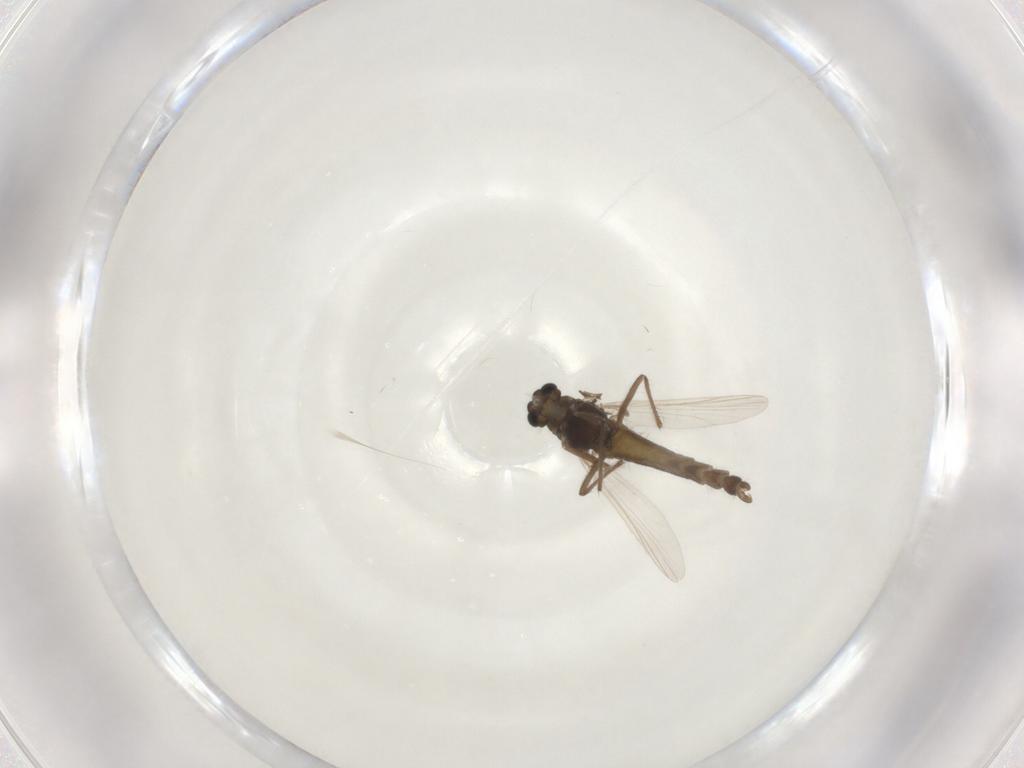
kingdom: Animalia
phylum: Arthropoda
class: Insecta
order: Diptera
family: Chironomidae
